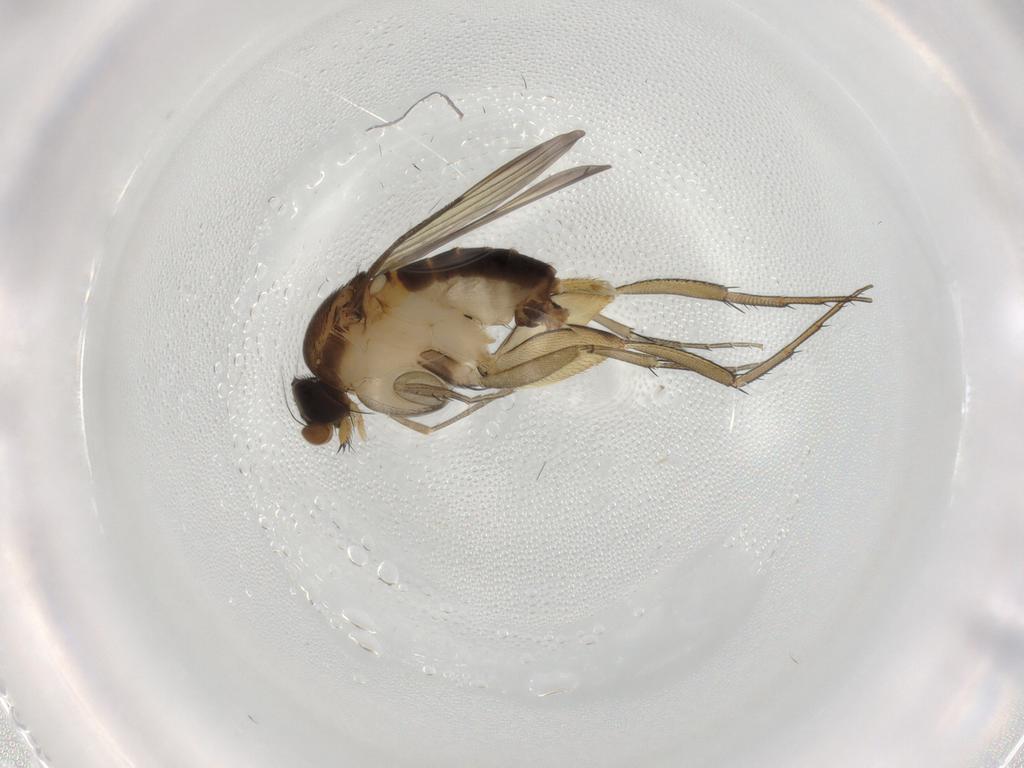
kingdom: Animalia
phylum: Arthropoda
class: Insecta
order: Diptera
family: Phoridae
